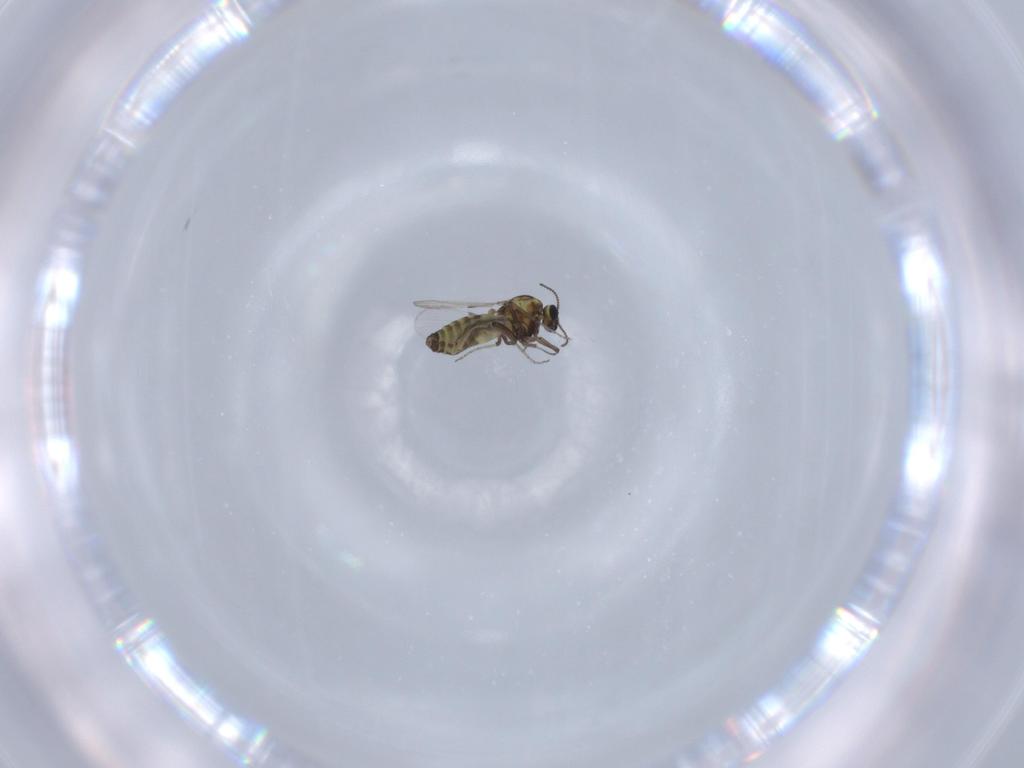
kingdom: Animalia
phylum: Arthropoda
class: Insecta
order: Diptera
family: Ceratopogonidae
